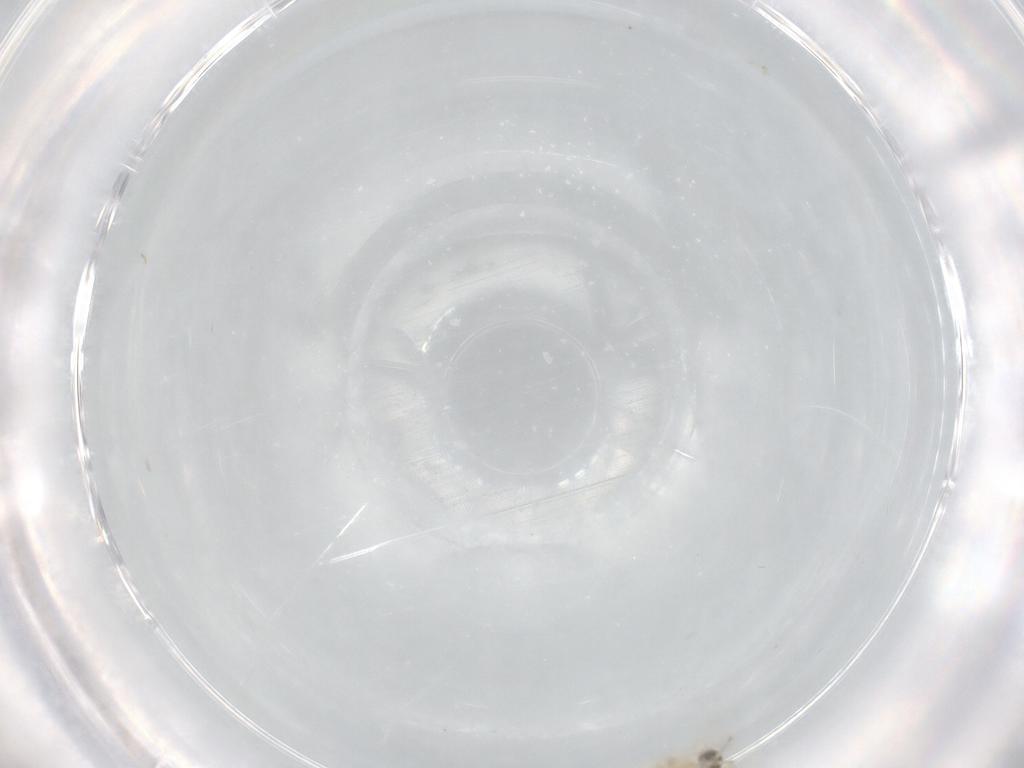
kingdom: Animalia
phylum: Arthropoda
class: Insecta
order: Diptera
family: Cecidomyiidae
